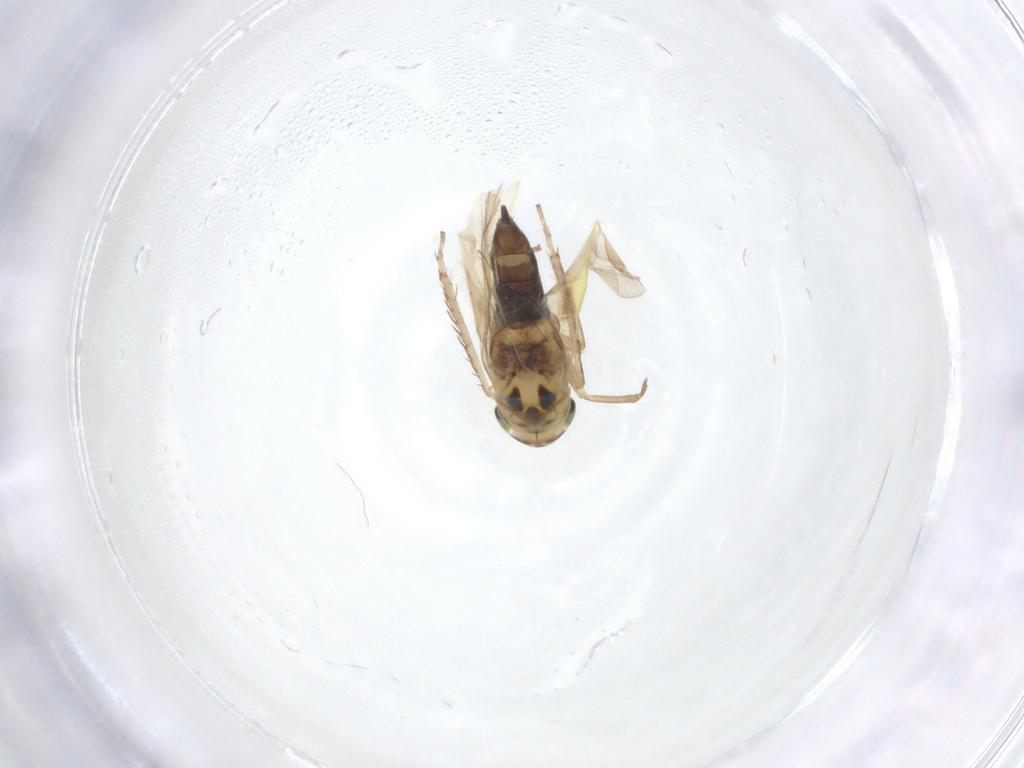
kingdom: Animalia
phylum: Arthropoda
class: Insecta
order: Hemiptera
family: Cicadellidae
